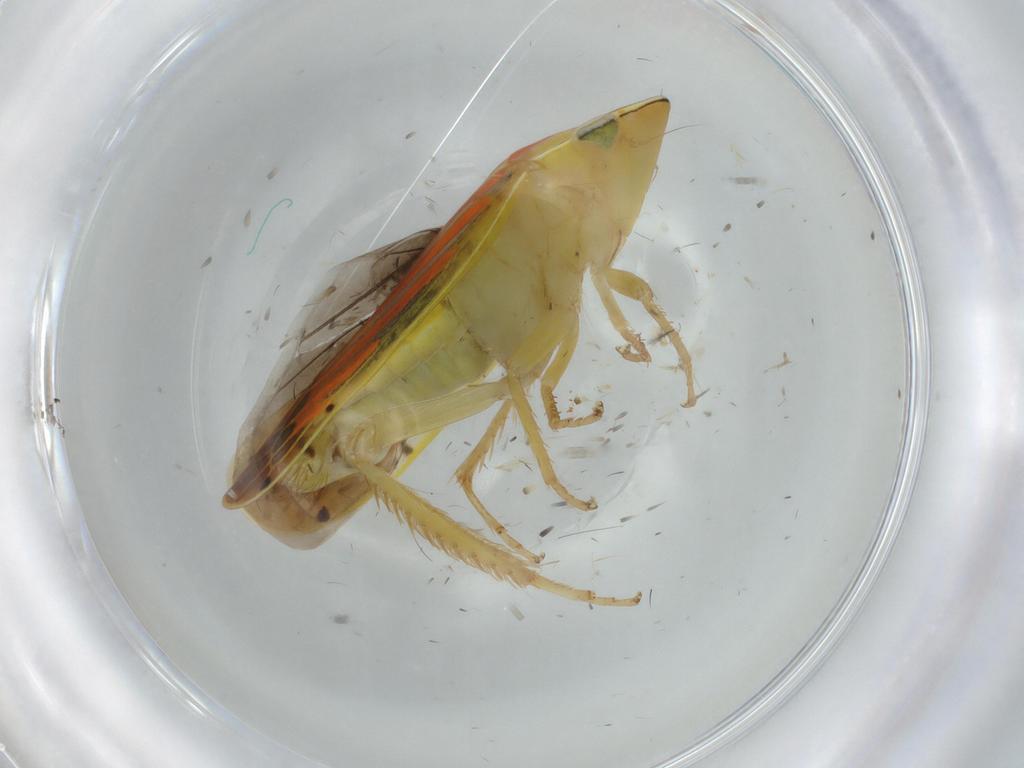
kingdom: Animalia
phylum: Arthropoda
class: Insecta
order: Hemiptera
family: Cicadellidae
